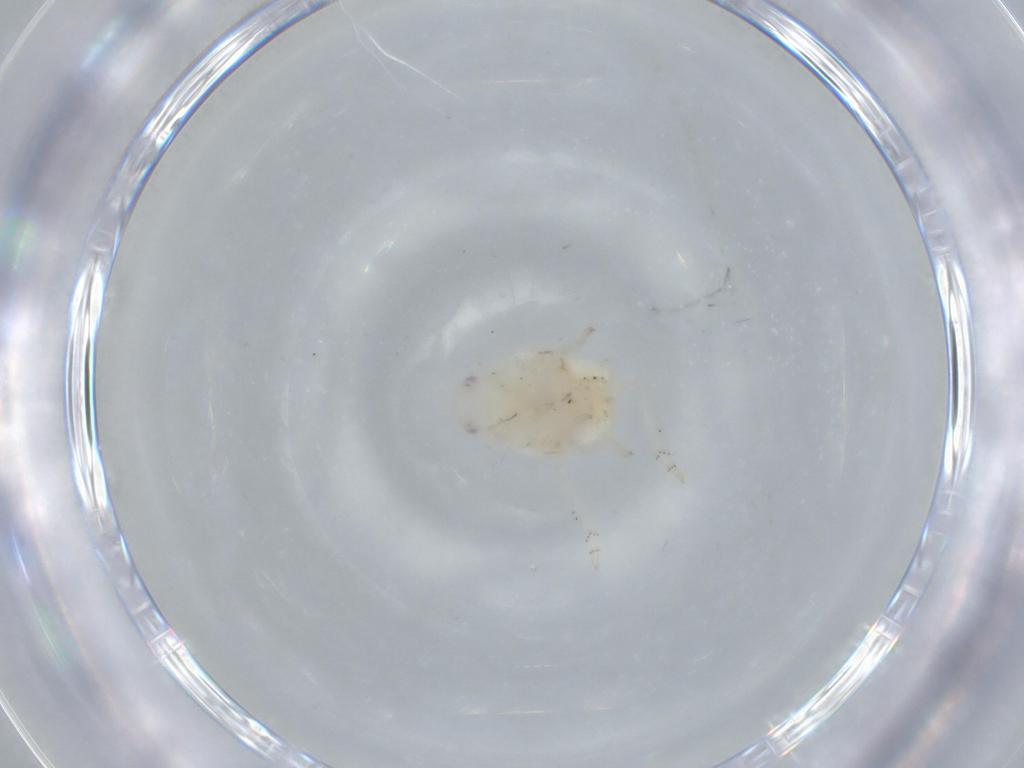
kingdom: Animalia
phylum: Arthropoda
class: Insecta
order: Hemiptera
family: Flatidae
